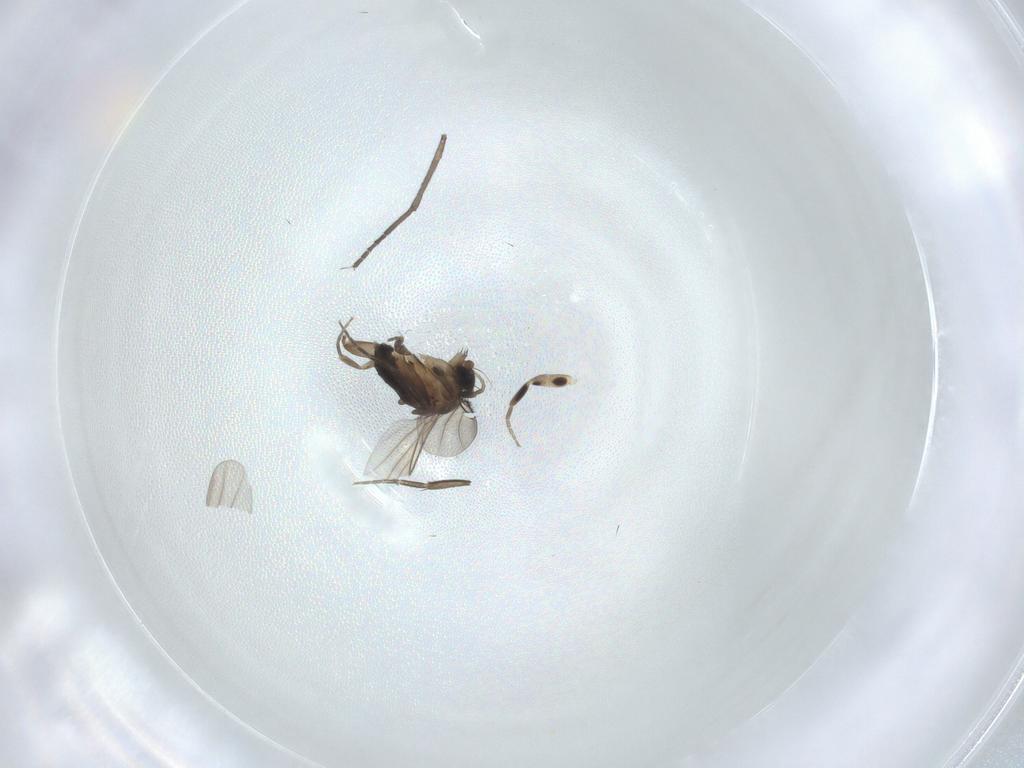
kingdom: Animalia
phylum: Arthropoda
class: Insecta
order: Diptera
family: Phoridae
